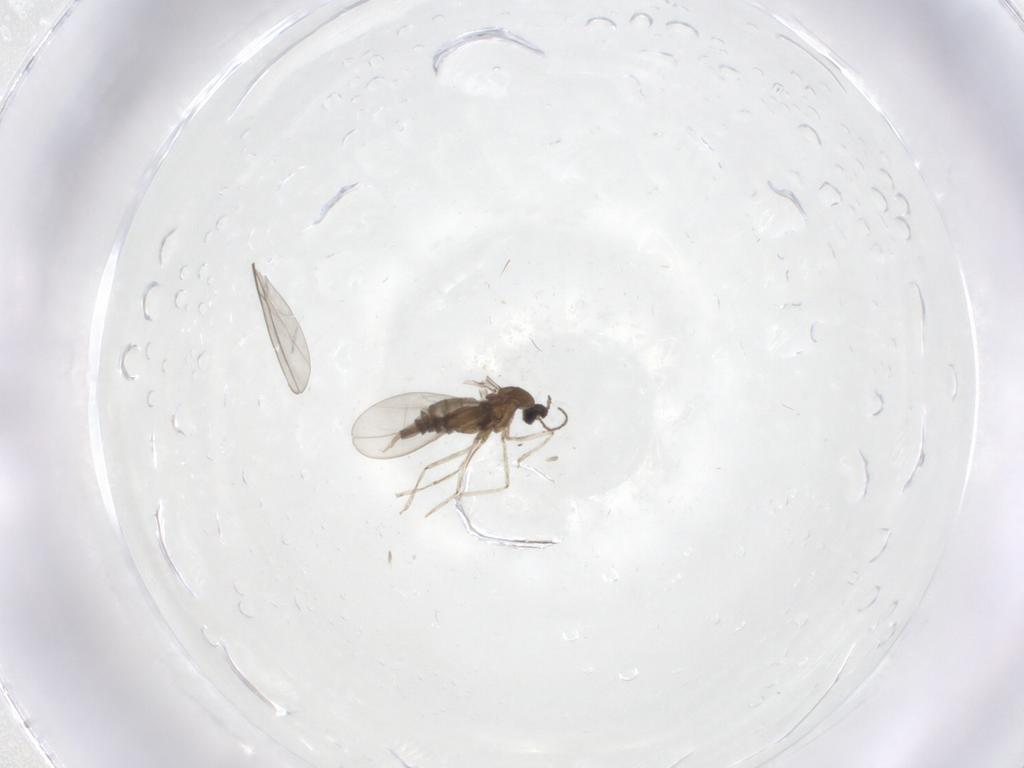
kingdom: Animalia
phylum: Arthropoda
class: Insecta
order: Diptera
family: Cecidomyiidae
